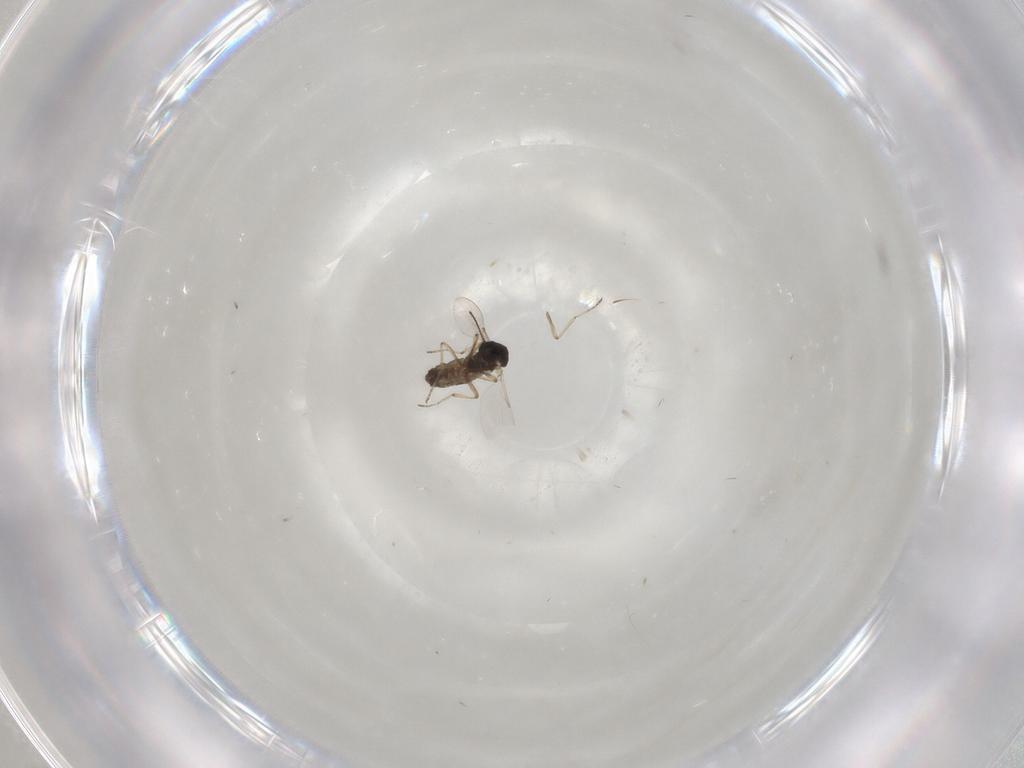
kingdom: Animalia
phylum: Arthropoda
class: Insecta
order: Diptera
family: Ceratopogonidae
